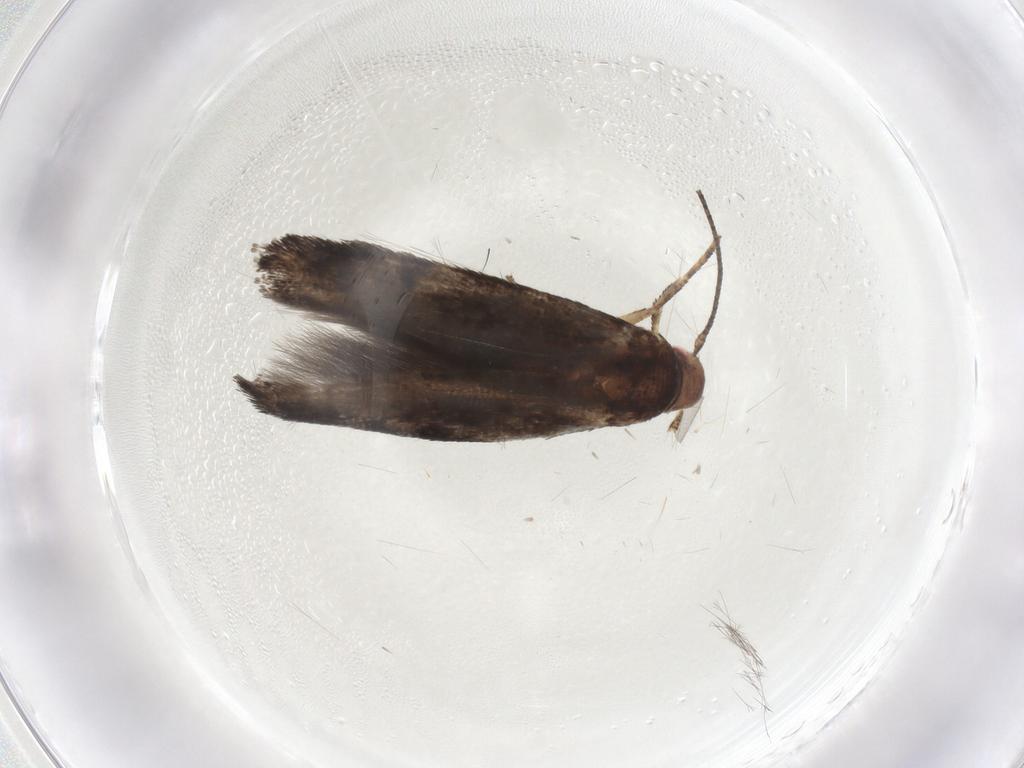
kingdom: Animalia
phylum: Arthropoda
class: Insecta
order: Lepidoptera
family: Momphidae
